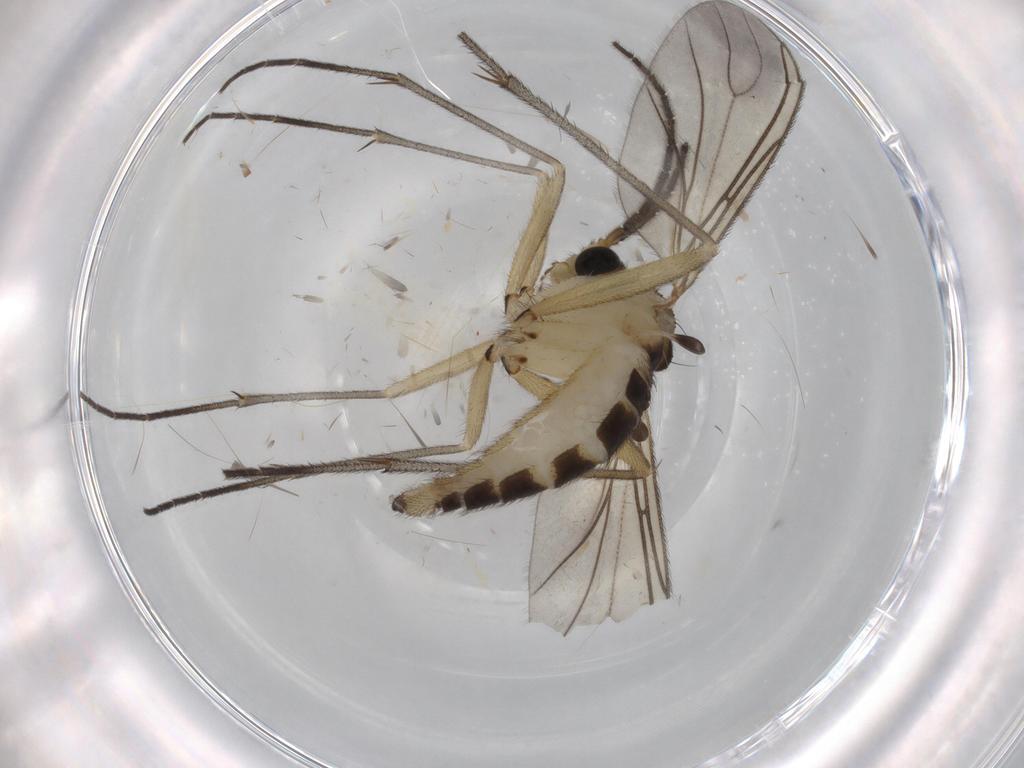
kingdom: Animalia
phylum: Arthropoda
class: Insecta
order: Diptera
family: Sciaridae
